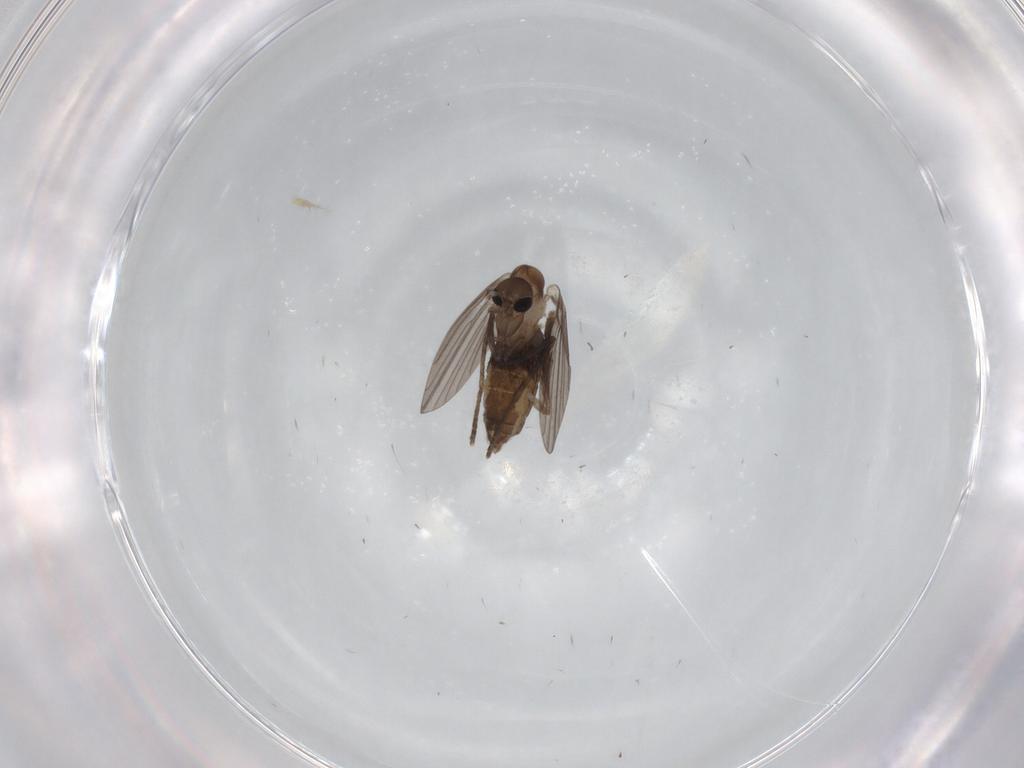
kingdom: Animalia
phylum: Arthropoda
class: Insecta
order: Diptera
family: Psychodidae
